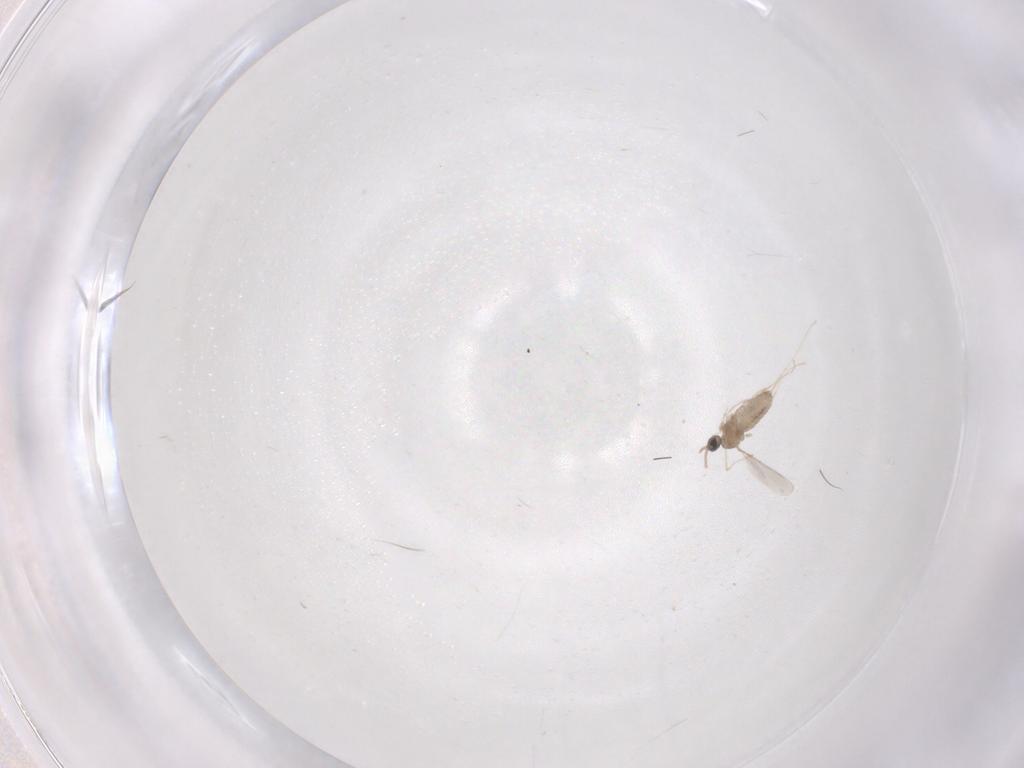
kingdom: Animalia
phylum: Arthropoda
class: Insecta
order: Diptera
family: Cecidomyiidae
